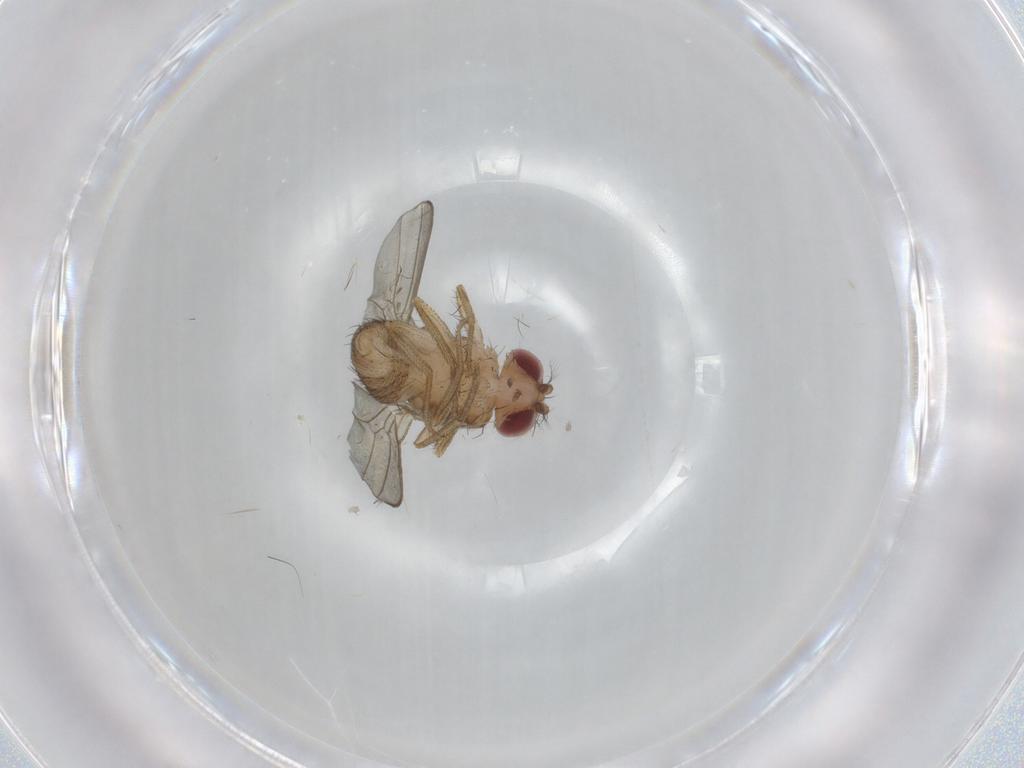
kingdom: Animalia
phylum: Arthropoda
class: Insecta
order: Diptera
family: Drosophilidae
